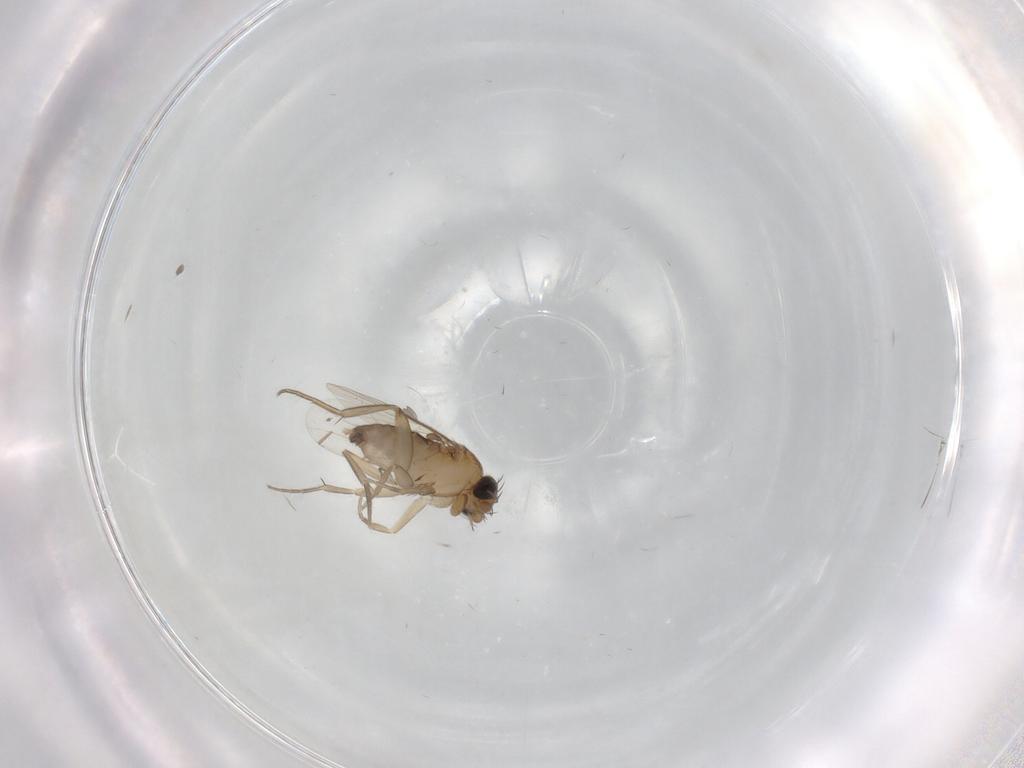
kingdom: Animalia
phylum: Arthropoda
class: Insecta
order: Diptera
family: Phoridae
